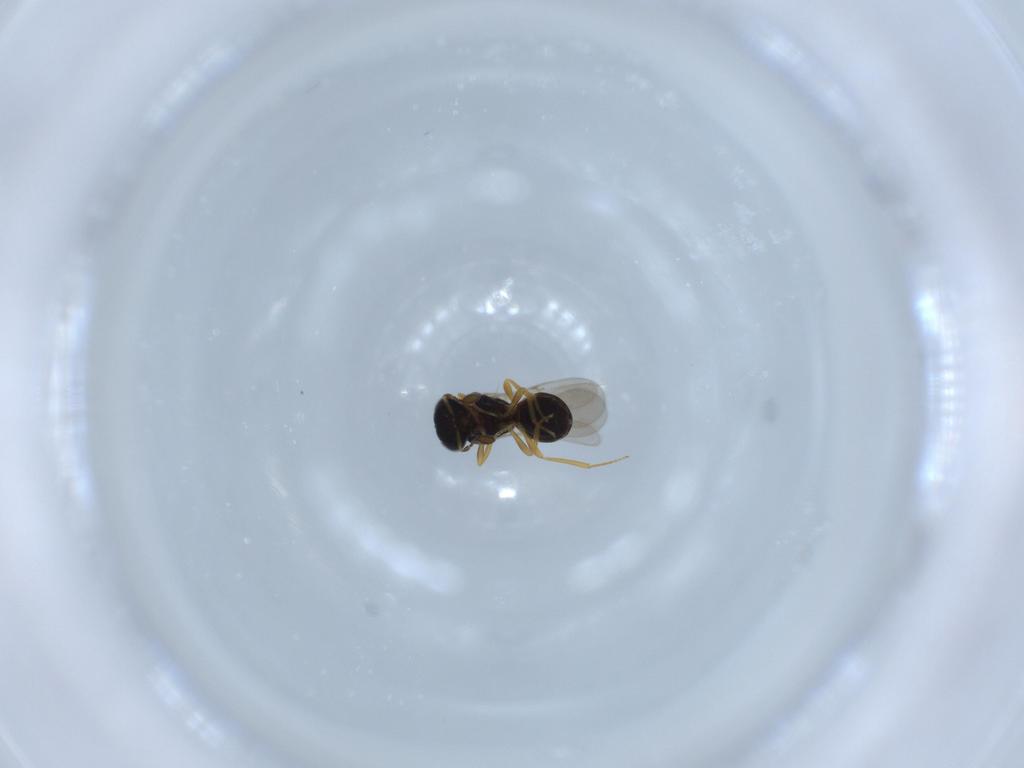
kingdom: Animalia
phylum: Arthropoda
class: Insecta
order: Hymenoptera
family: Scelionidae
